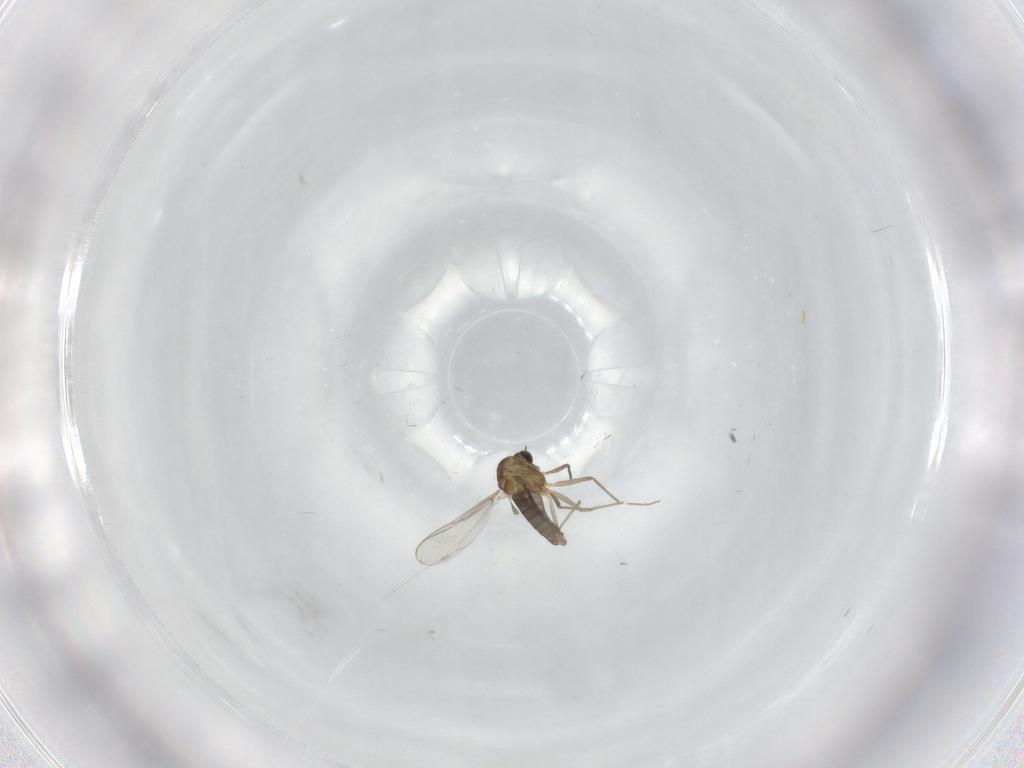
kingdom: Animalia
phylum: Arthropoda
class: Insecta
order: Diptera
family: Chironomidae
